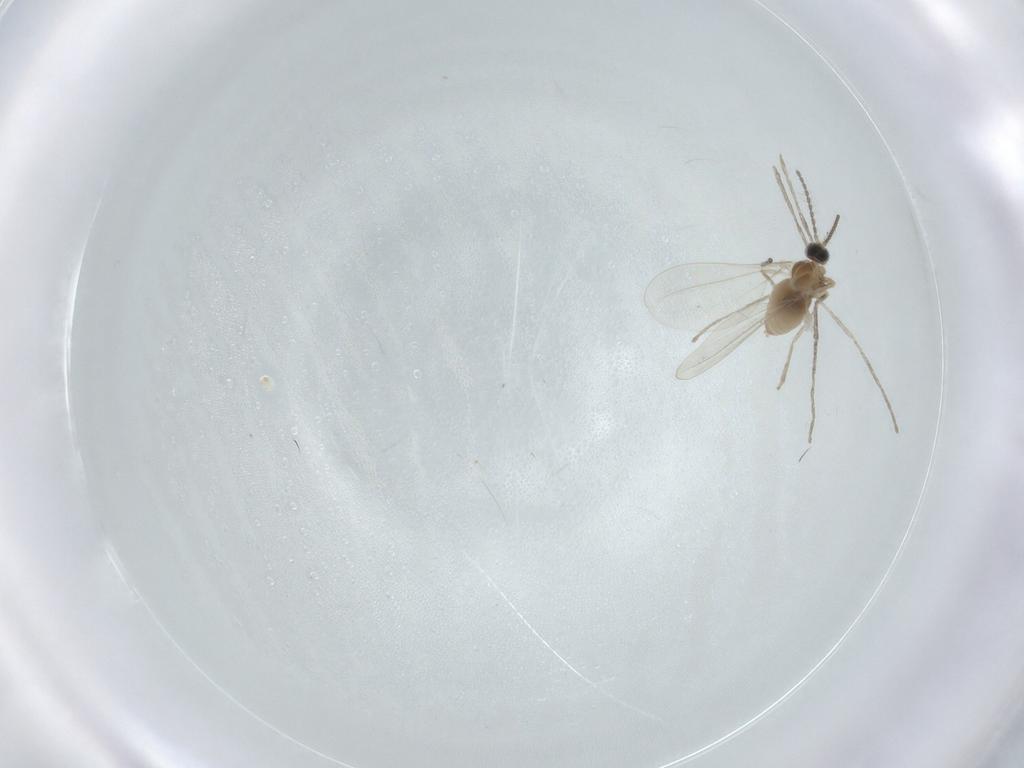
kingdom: Animalia
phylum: Arthropoda
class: Insecta
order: Diptera
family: Cecidomyiidae
